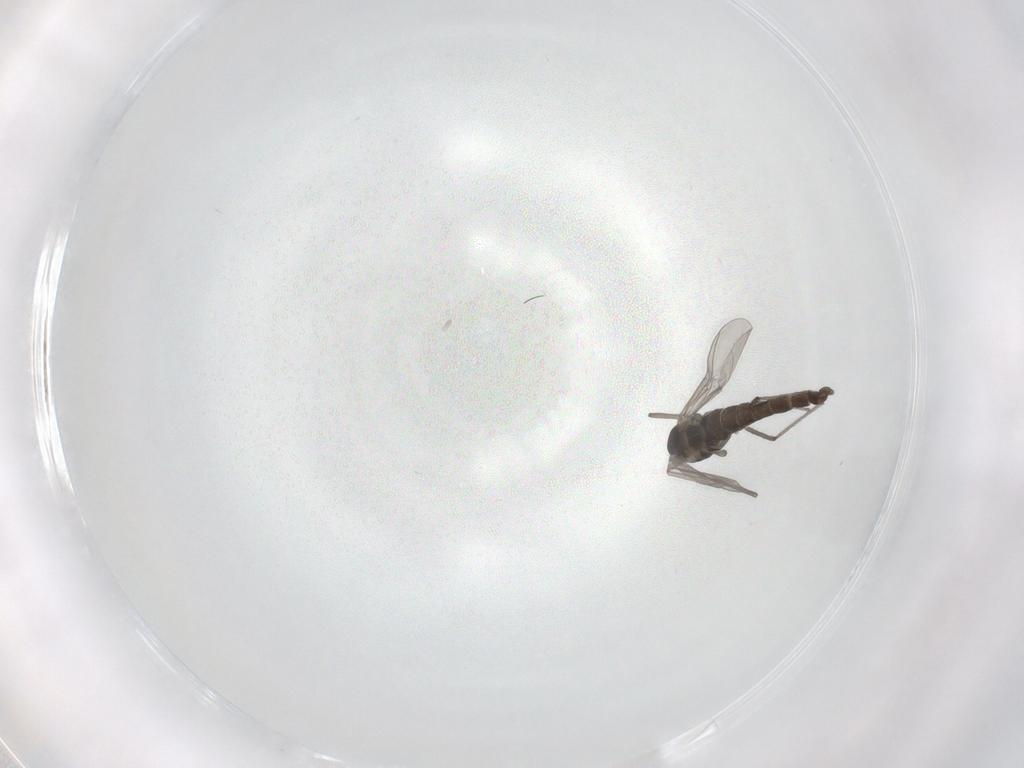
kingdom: Animalia
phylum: Arthropoda
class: Insecta
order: Diptera
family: Chironomidae
